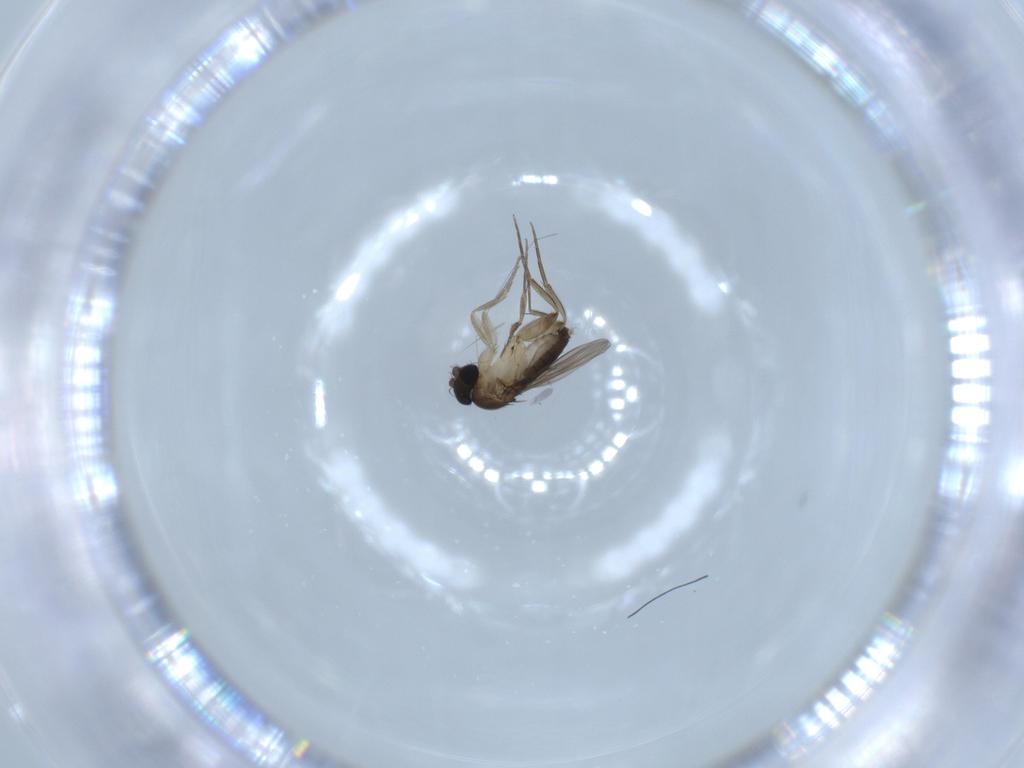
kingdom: Animalia
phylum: Arthropoda
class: Insecta
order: Diptera
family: Phoridae
